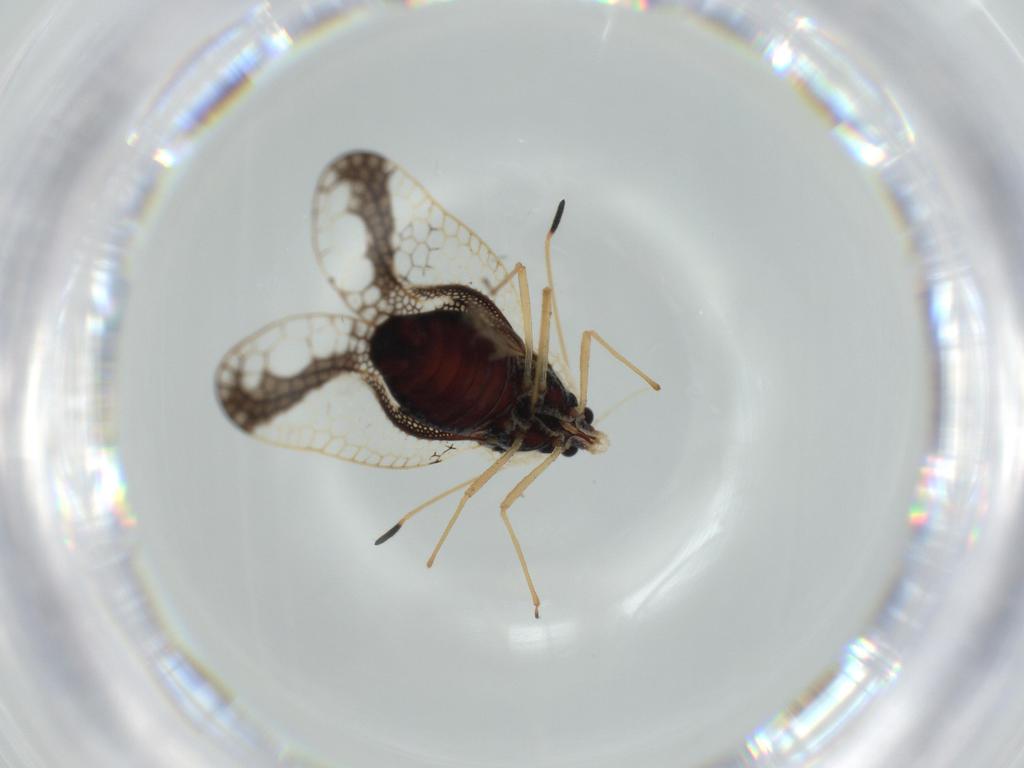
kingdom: Animalia
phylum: Arthropoda
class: Insecta
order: Hemiptera
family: Tingidae
